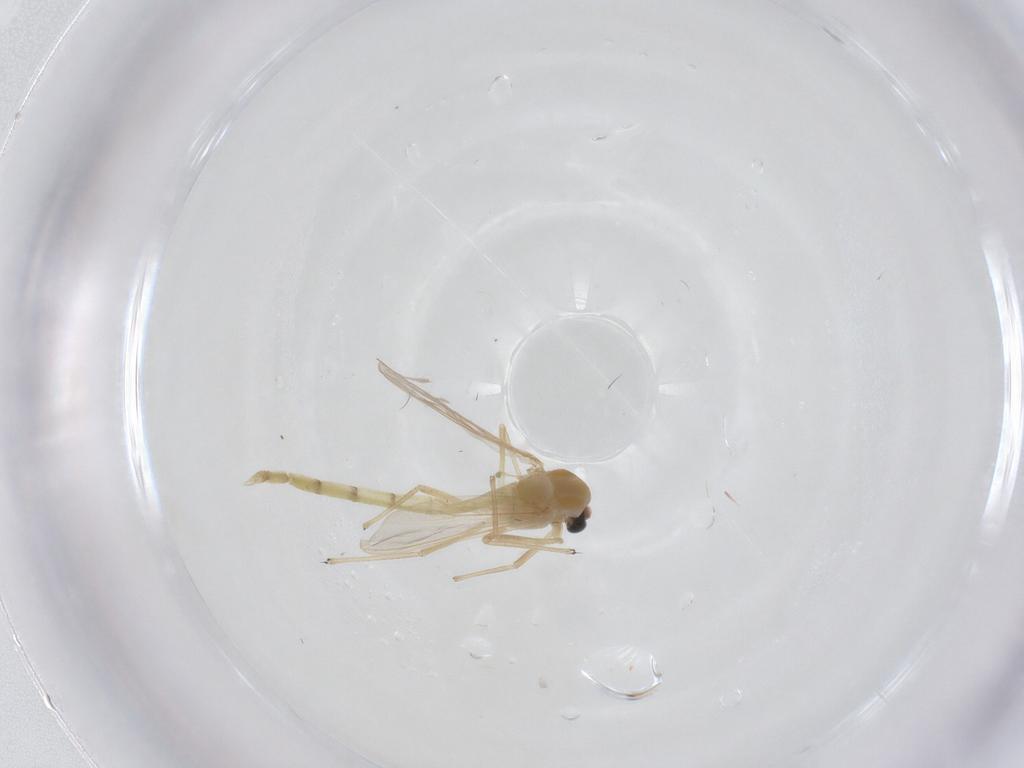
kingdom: Animalia
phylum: Arthropoda
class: Insecta
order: Diptera
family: Chironomidae
